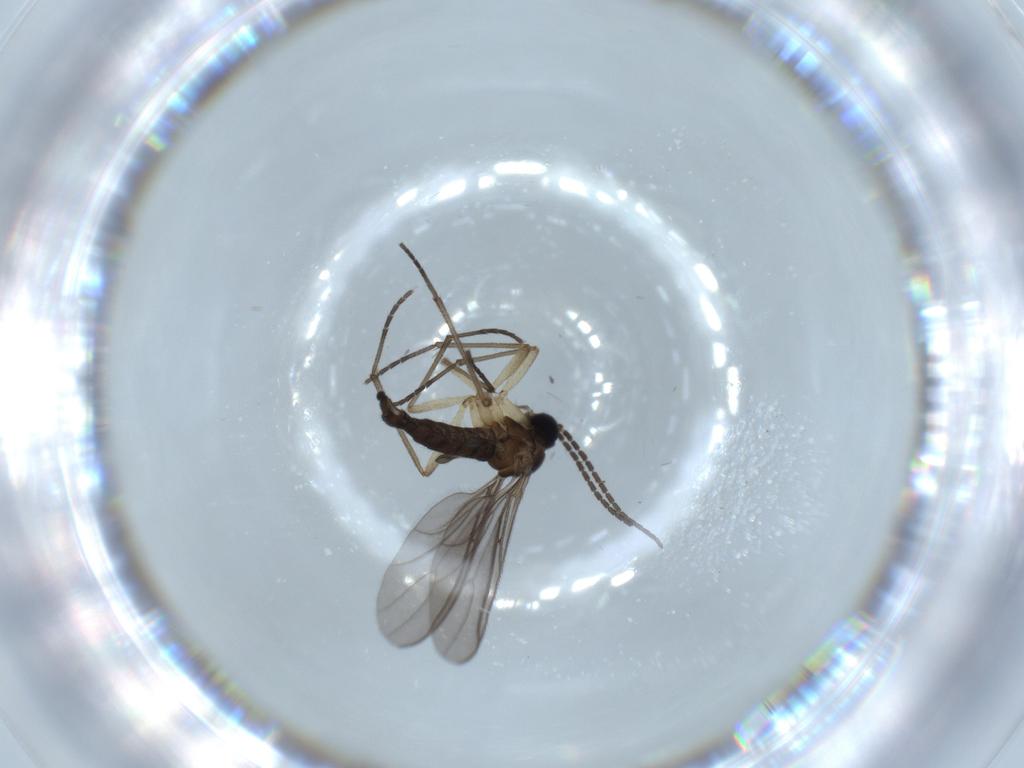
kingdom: Animalia
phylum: Arthropoda
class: Insecta
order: Diptera
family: Sciaridae
